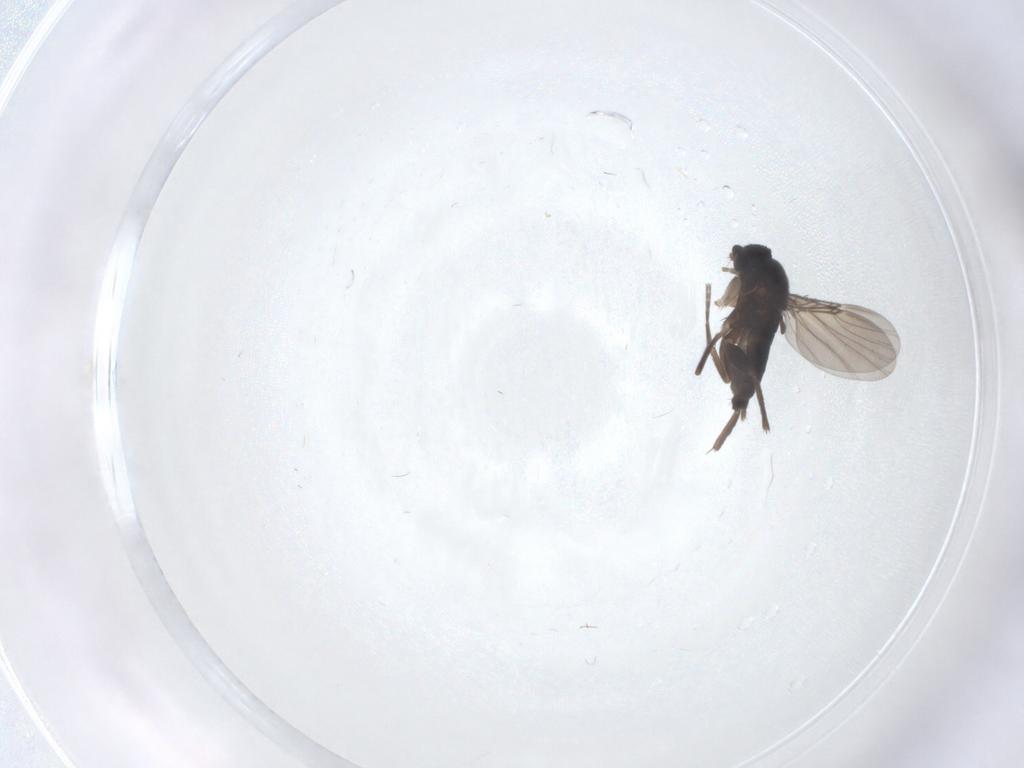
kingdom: Animalia
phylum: Arthropoda
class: Insecta
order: Diptera
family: Phoridae
